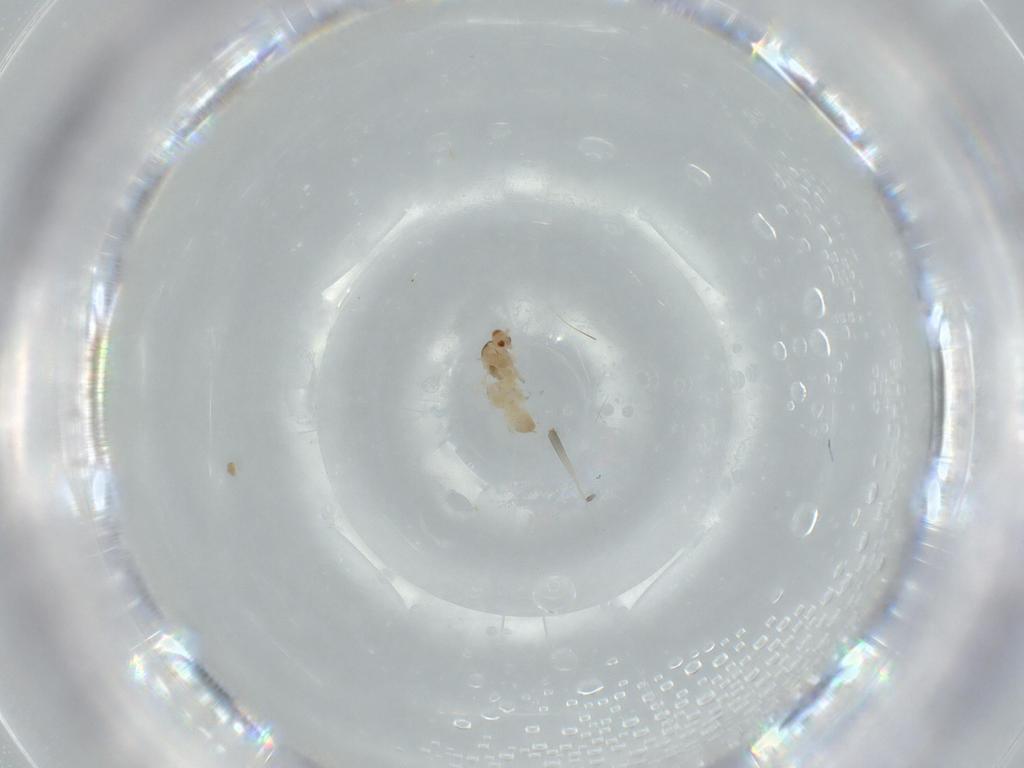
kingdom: Animalia
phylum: Arthropoda
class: Insecta
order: Diptera
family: Cecidomyiidae
